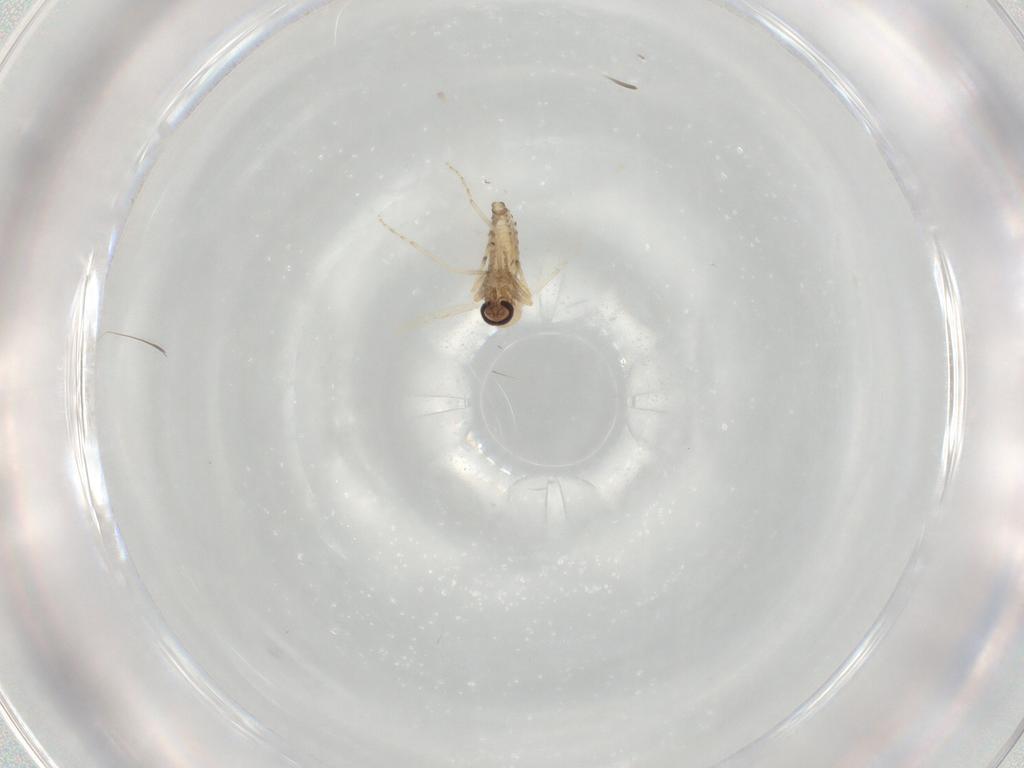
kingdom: Animalia
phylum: Arthropoda
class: Insecta
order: Diptera
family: Ceratopogonidae
